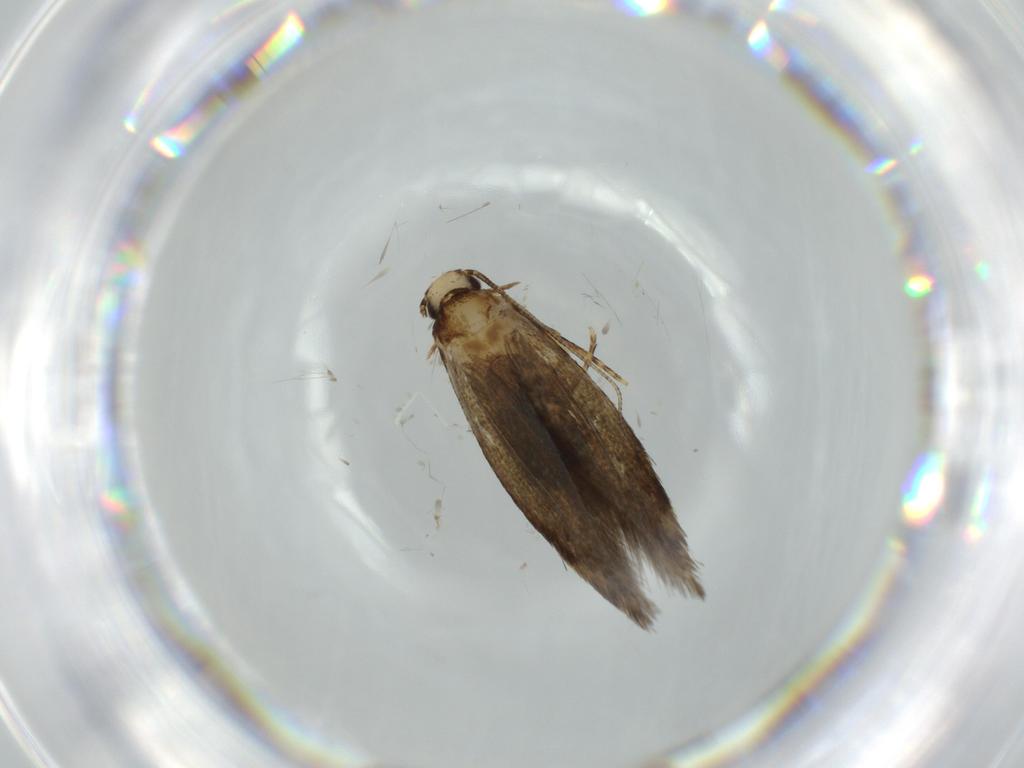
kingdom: Animalia
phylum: Arthropoda
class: Insecta
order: Lepidoptera
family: Tineidae
